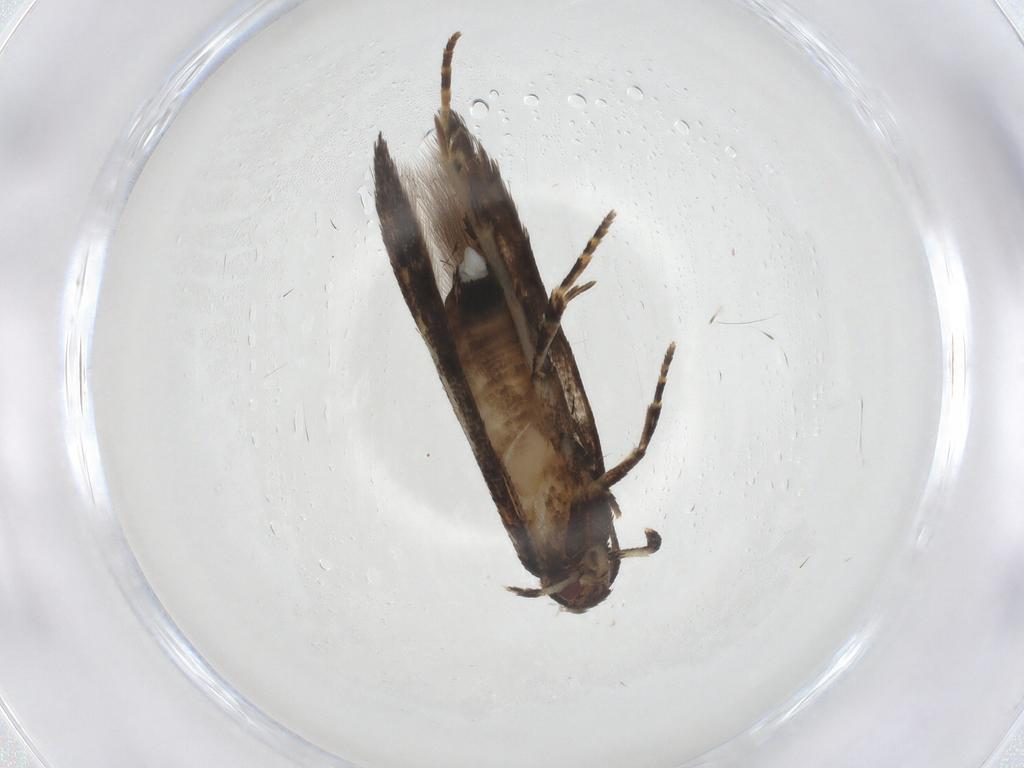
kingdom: Animalia
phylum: Arthropoda
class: Insecta
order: Lepidoptera
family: Elachistidae
